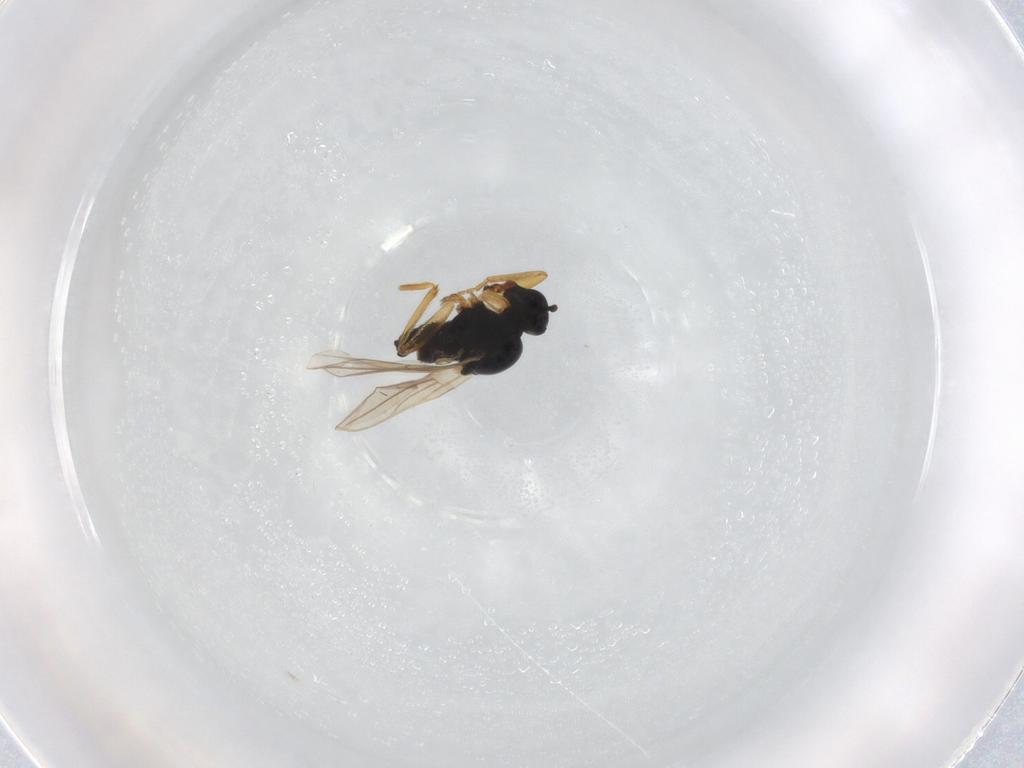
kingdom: Animalia
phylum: Arthropoda
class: Insecta
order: Diptera
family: Hybotidae
